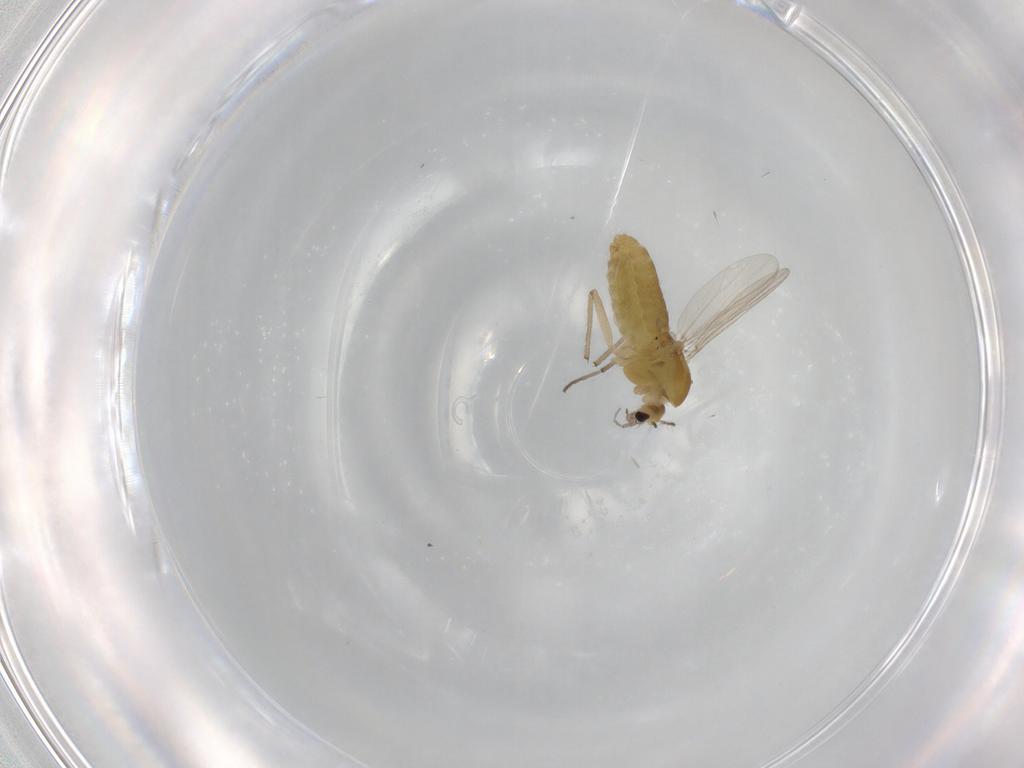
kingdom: Animalia
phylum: Arthropoda
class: Insecta
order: Diptera
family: Chironomidae
